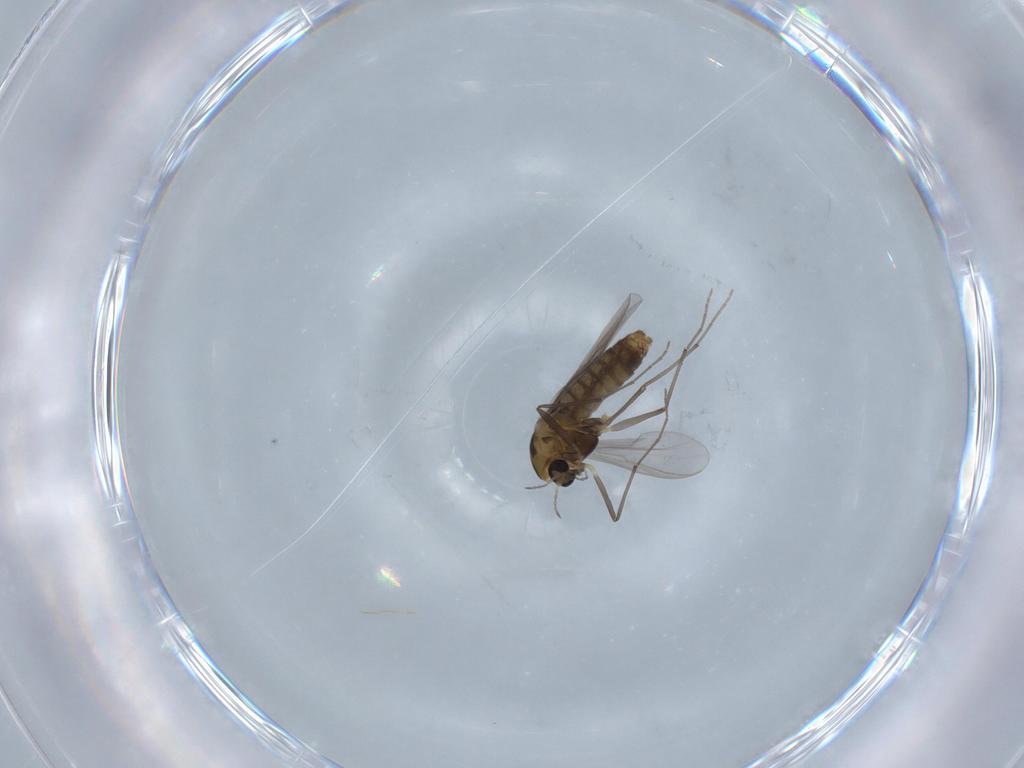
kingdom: Animalia
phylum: Arthropoda
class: Insecta
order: Diptera
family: Chironomidae
